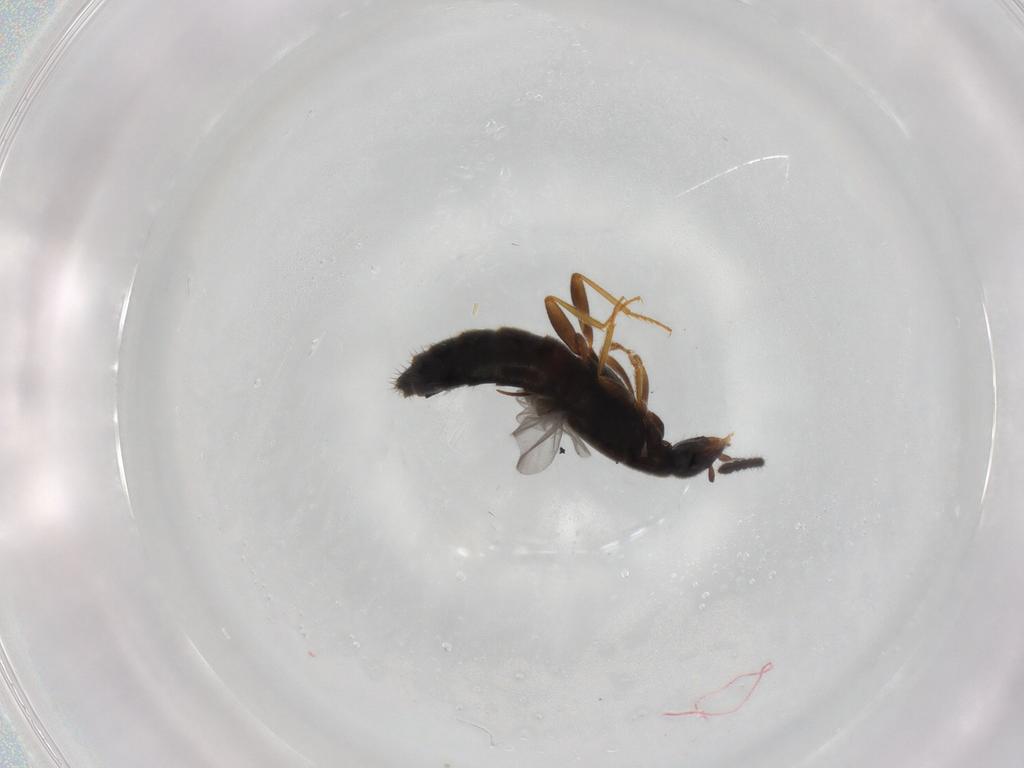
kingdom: Animalia
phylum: Arthropoda
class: Insecta
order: Coleoptera
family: Staphylinidae
